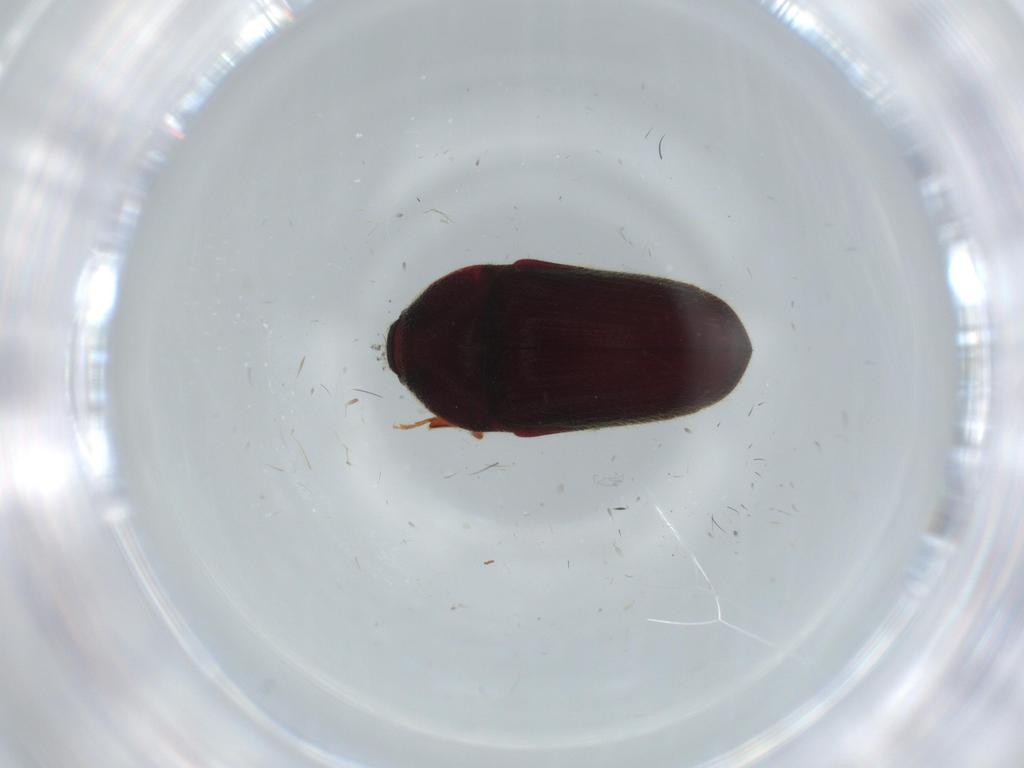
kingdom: Animalia
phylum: Arthropoda
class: Insecta
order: Coleoptera
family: Throscidae
